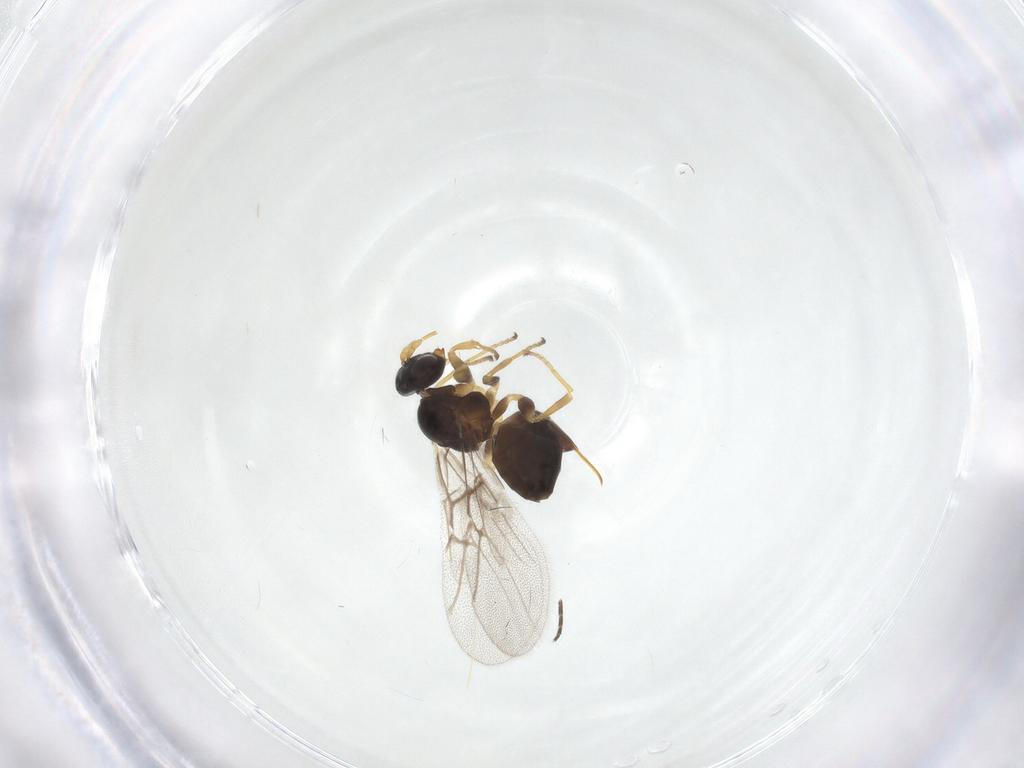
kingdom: Animalia
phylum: Arthropoda
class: Insecta
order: Hymenoptera
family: Cynipidae
